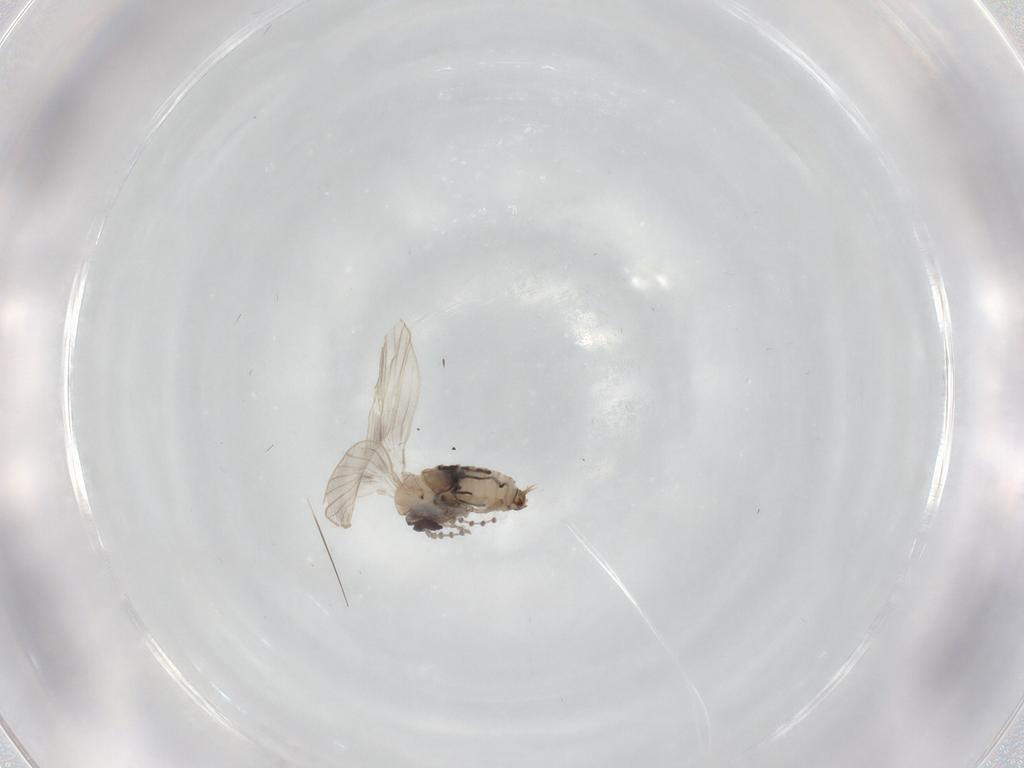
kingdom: Animalia
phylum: Arthropoda
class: Insecta
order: Diptera
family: Psychodidae
